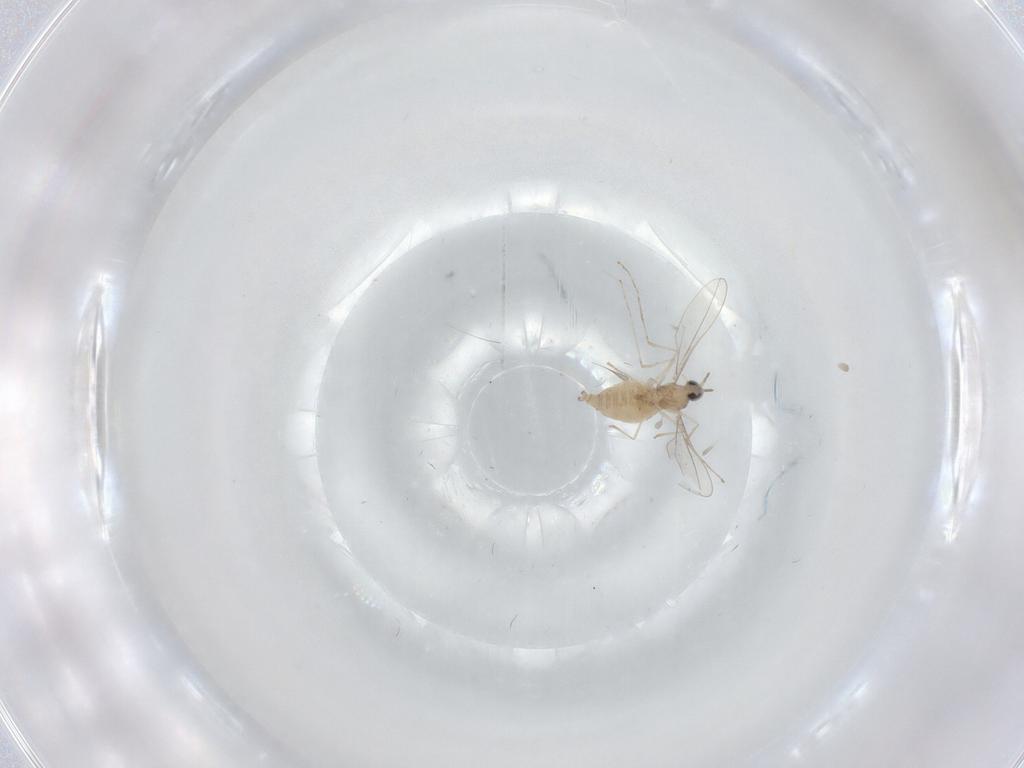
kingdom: Animalia
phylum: Arthropoda
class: Insecta
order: Diptera
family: Cecidomyiidae
